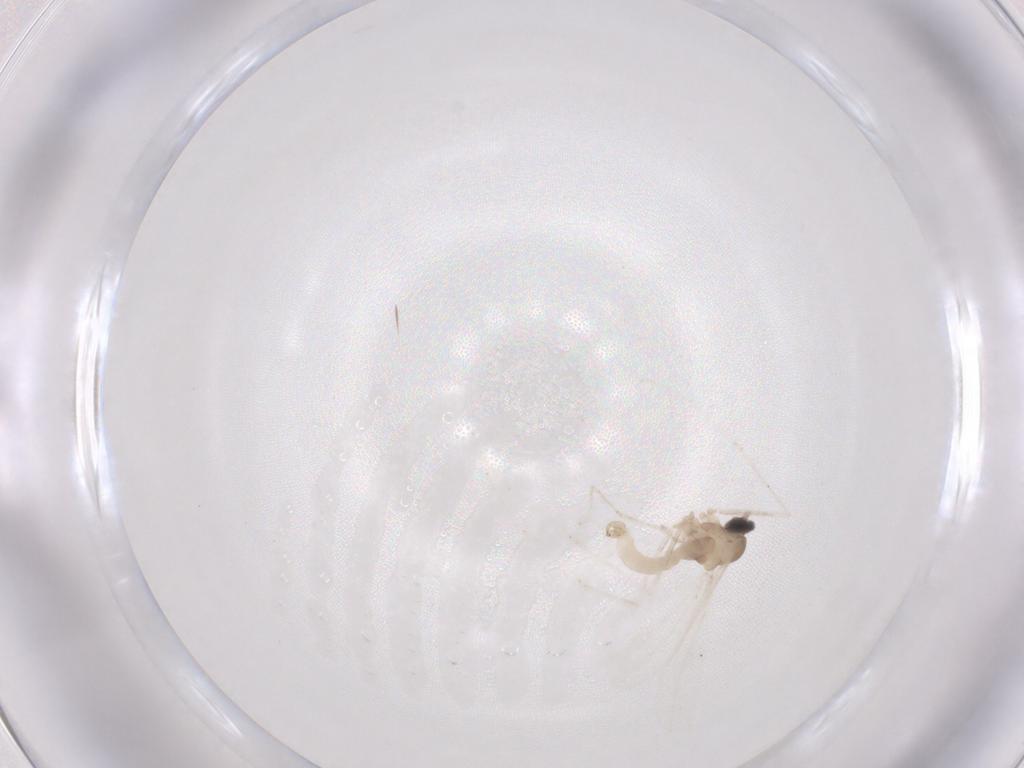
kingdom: Animalia
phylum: Arthropoda
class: Insecta
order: Diptera
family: Cecidomyiidae
